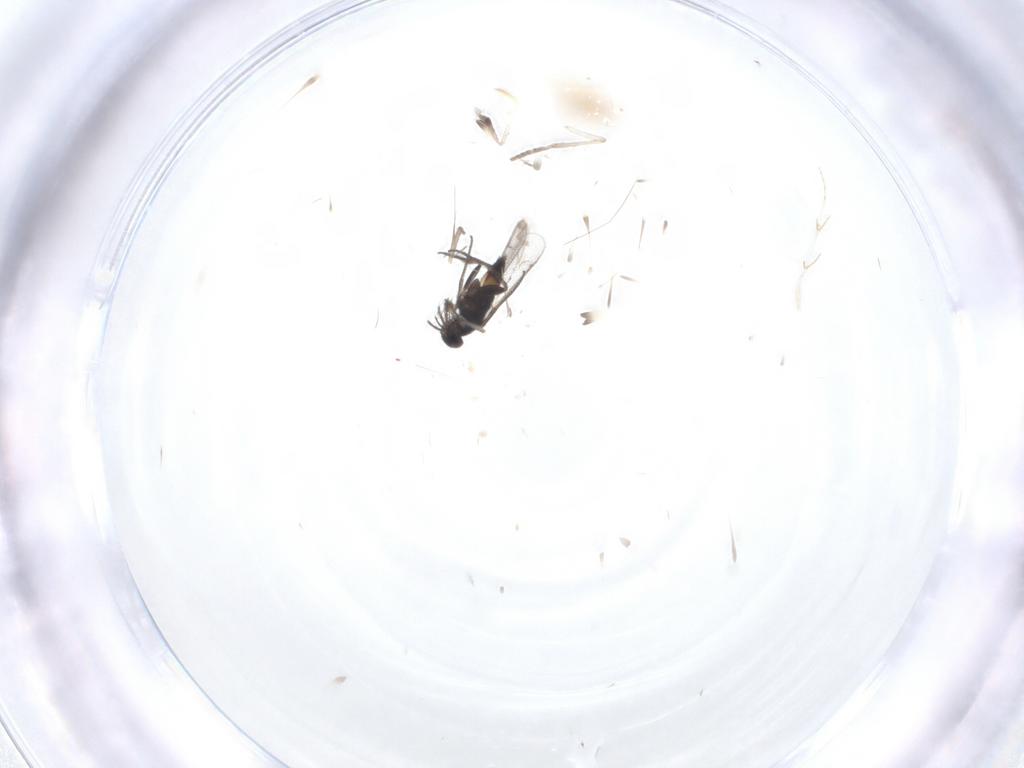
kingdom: Animalia
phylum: Arthropoda
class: Insecta
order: Hymenoptera
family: Eulophidae
